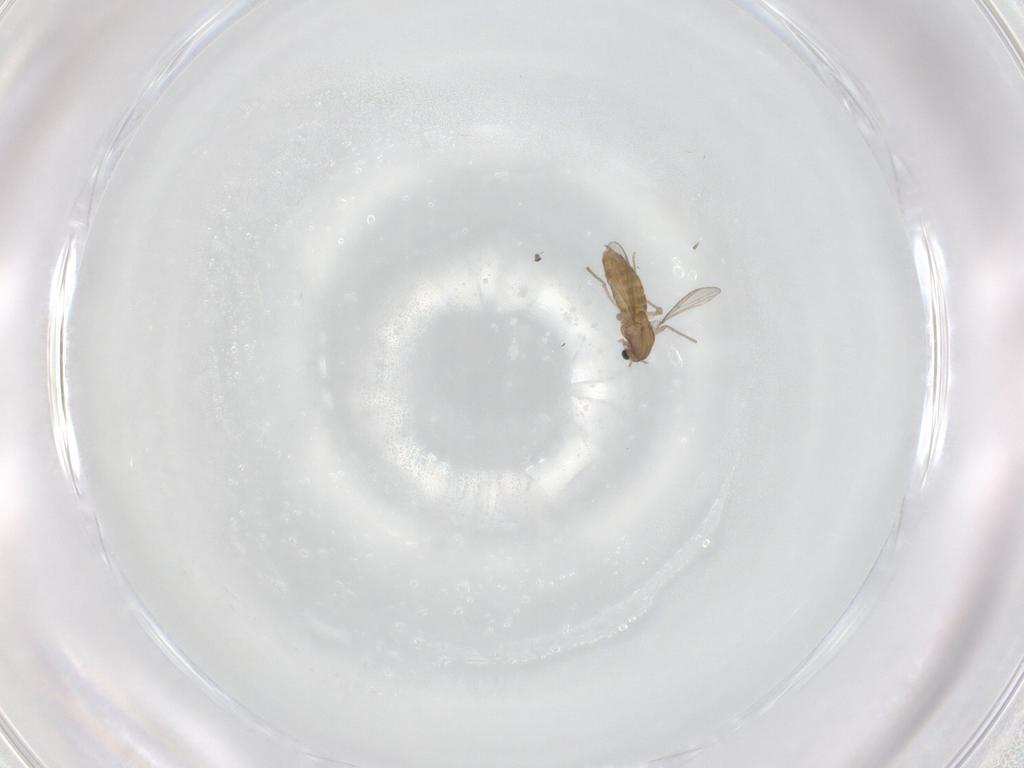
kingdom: Animalia
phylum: Arthropoda
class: Insecta
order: Diptera
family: Chironomidae
